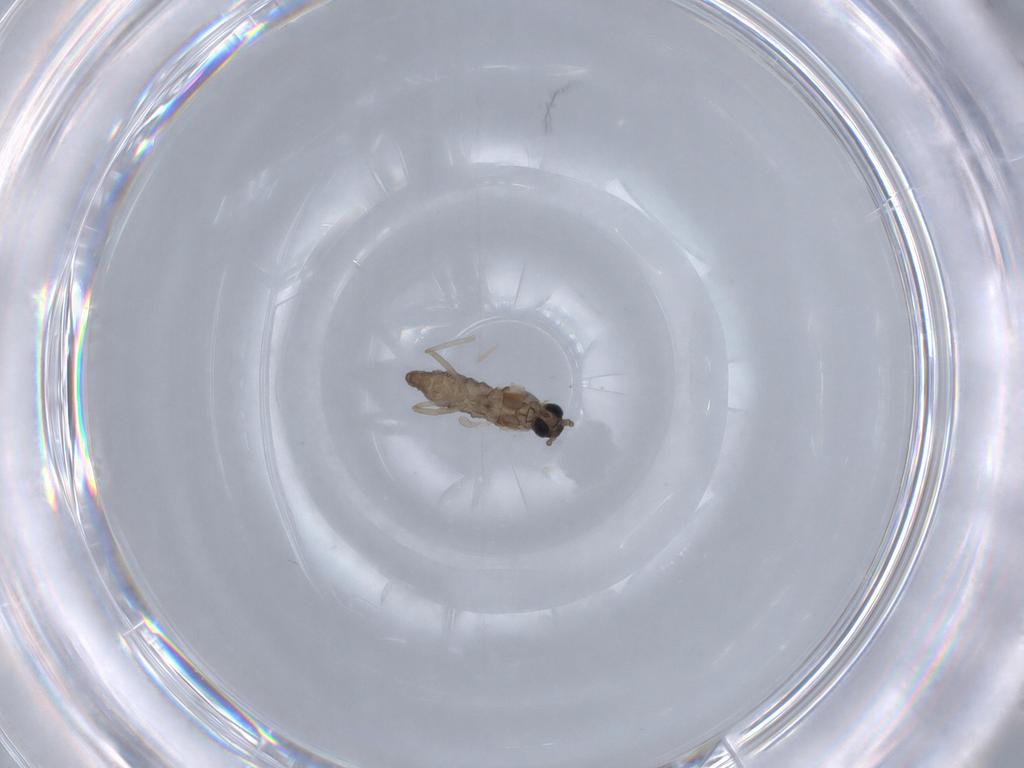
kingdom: Animalia
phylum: Arthropoda
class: Insecta
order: Diptera
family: Cecidomyiidae
